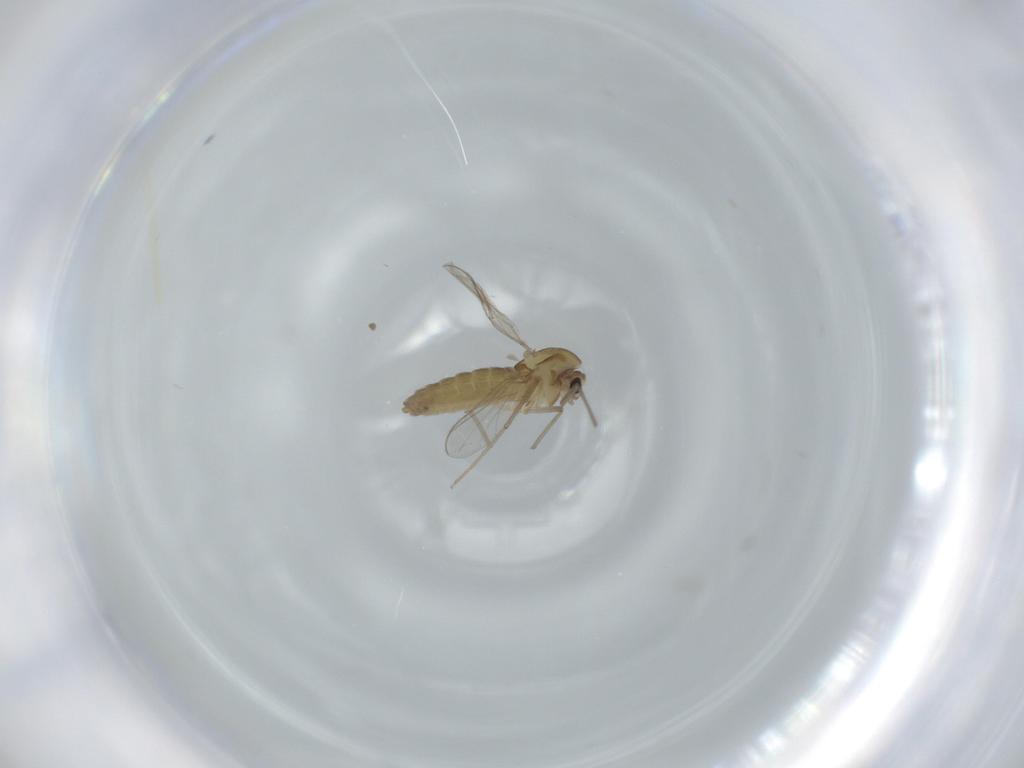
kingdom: Animalia
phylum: Arthropoda
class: Insecta
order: Diptera
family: Chironomidae
